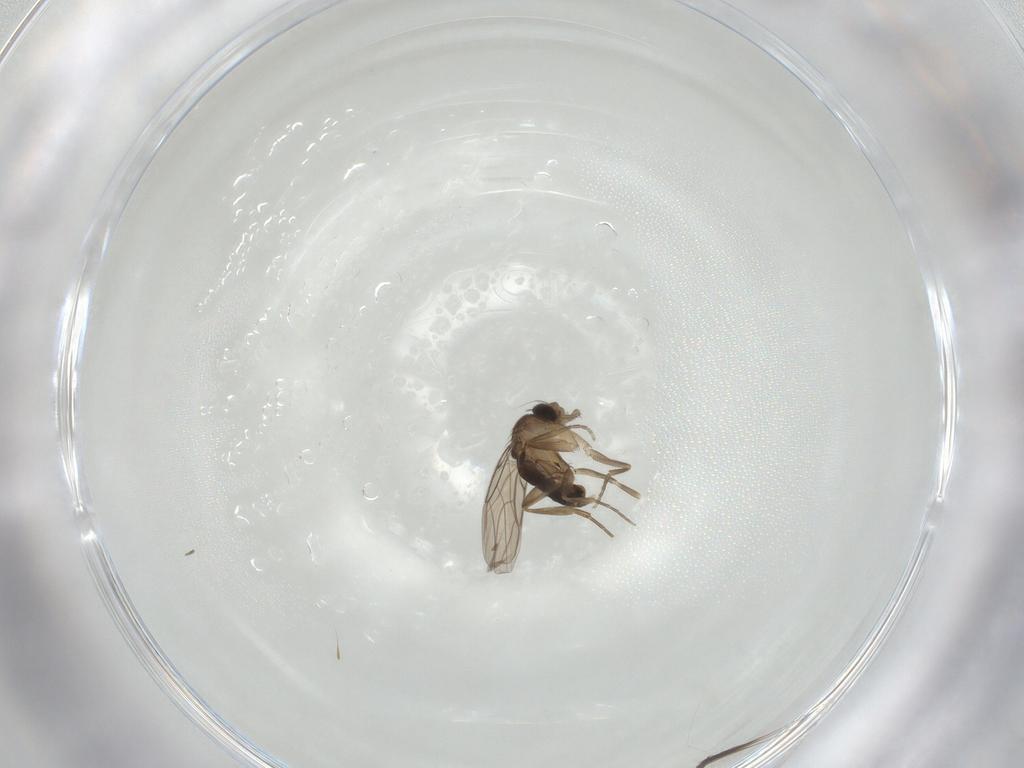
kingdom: Animalia
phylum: Arthropoda
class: Insecta
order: Diptera
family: Phoridae
